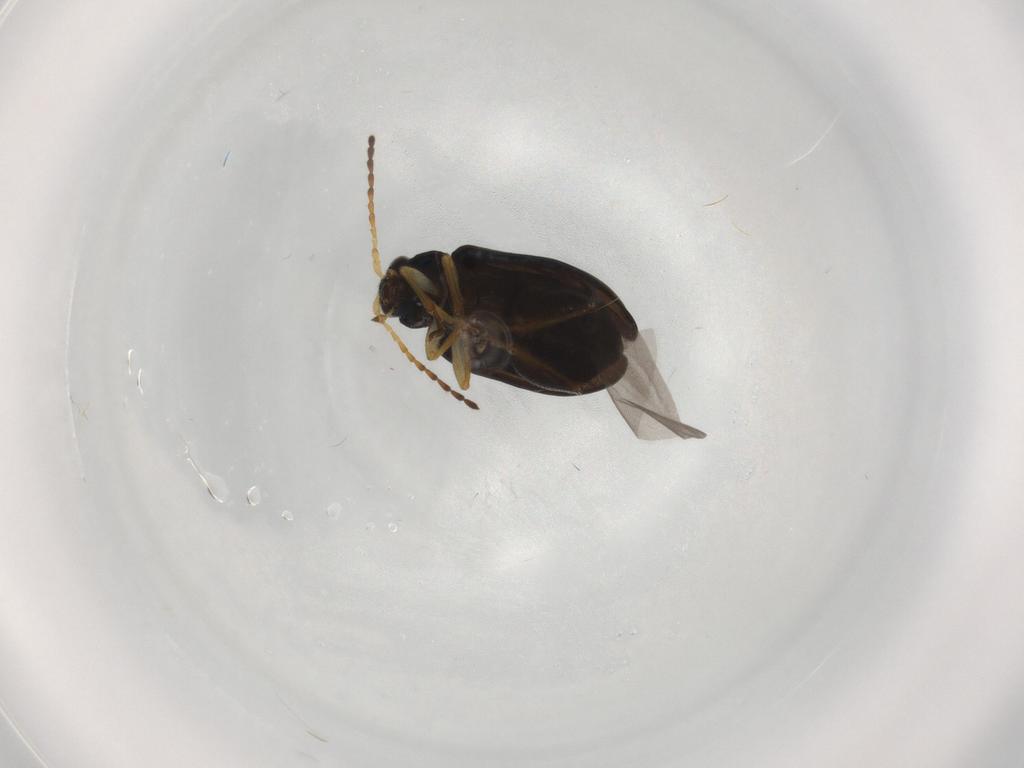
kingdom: Animalia
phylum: Arthropoda
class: Insecta
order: Coleoptera
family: Chrysomelidae
